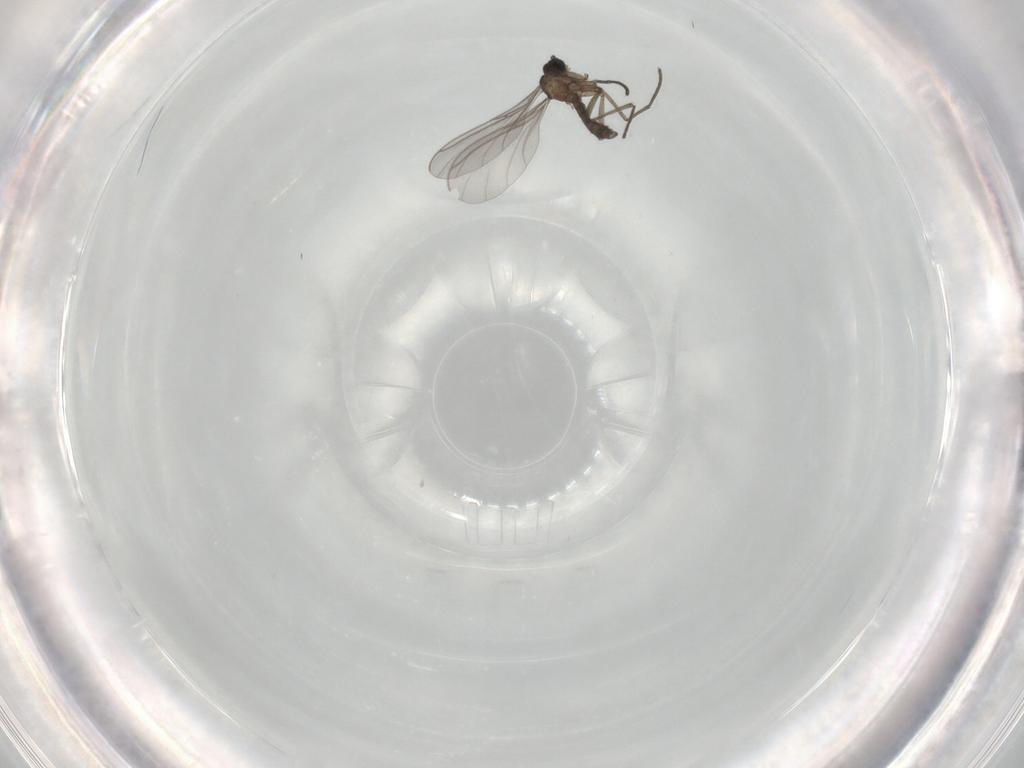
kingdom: Animalia
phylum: Arthropoda
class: Insecta
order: Diptera
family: Sciaridae
